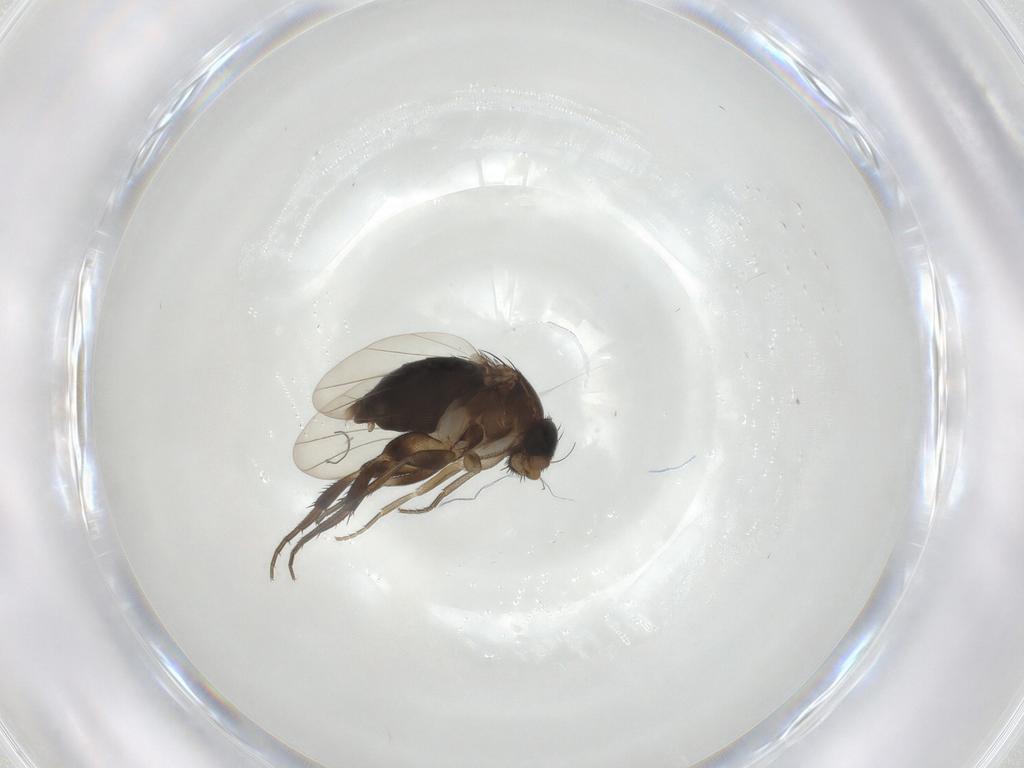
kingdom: Animalia
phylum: Arthropoda
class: Insecta
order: Diptera
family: Phoridae
